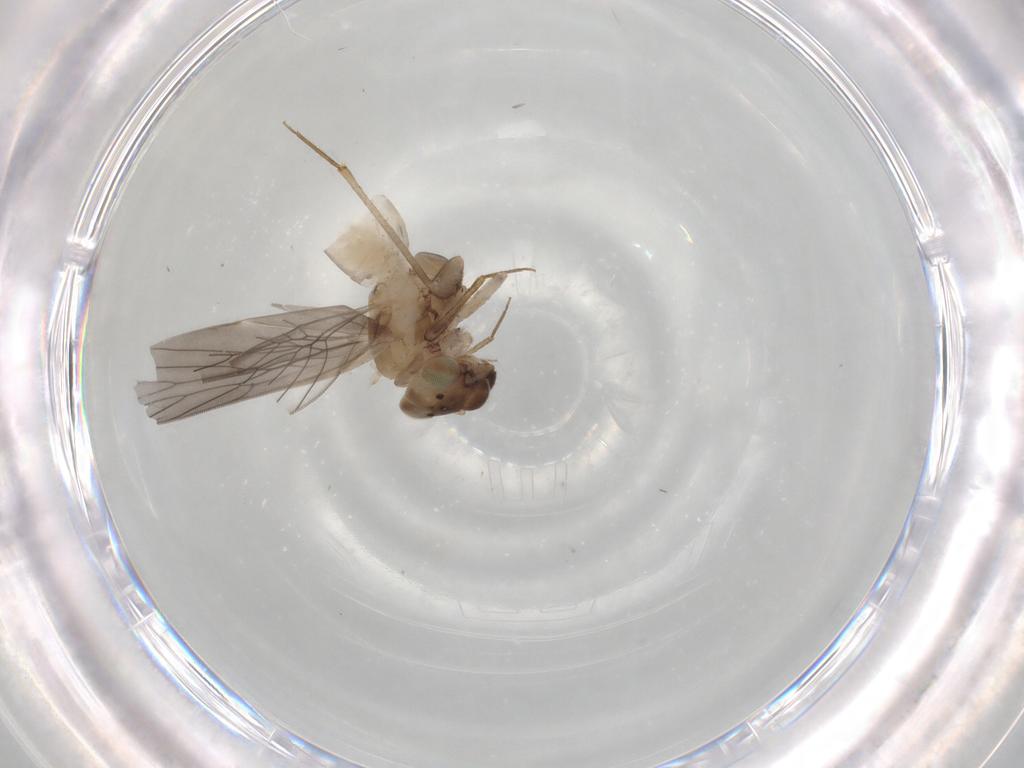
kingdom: Animalia
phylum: Arthropoda
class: Insecta
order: Psocodea
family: Lepidopsocidae
